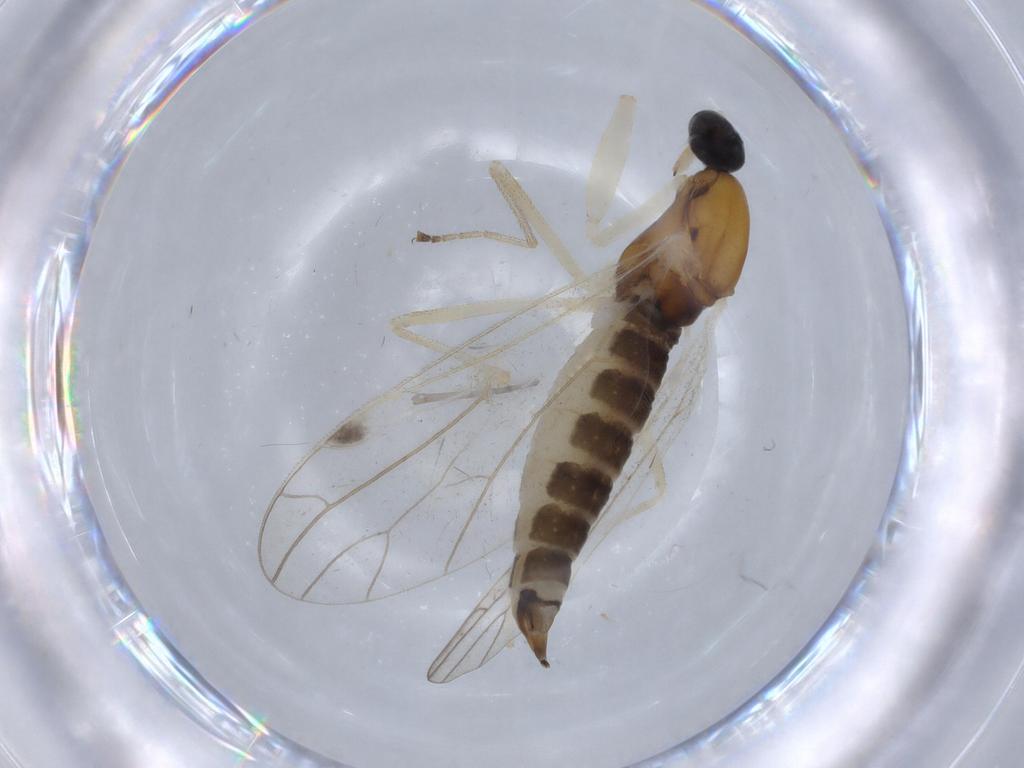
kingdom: Animalia
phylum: Arthropoda
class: Insecta
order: Diptera
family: Empididae
